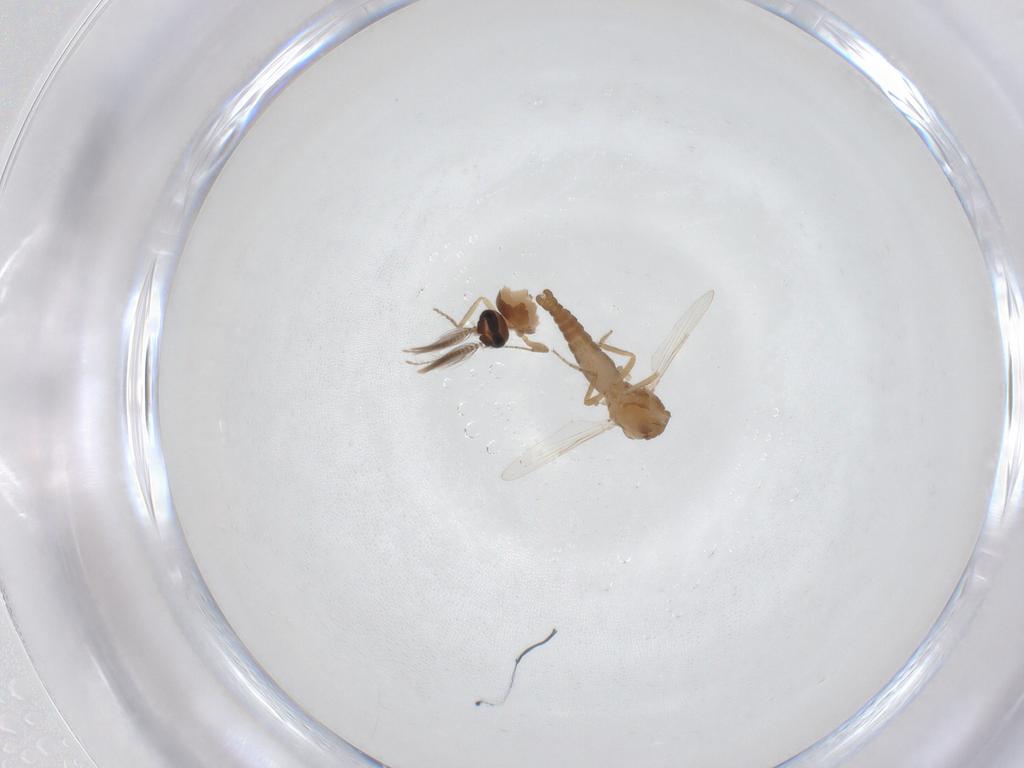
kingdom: Animalia
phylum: Arthropoda
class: Insecta
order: Diptera
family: Ceratopogonidae
